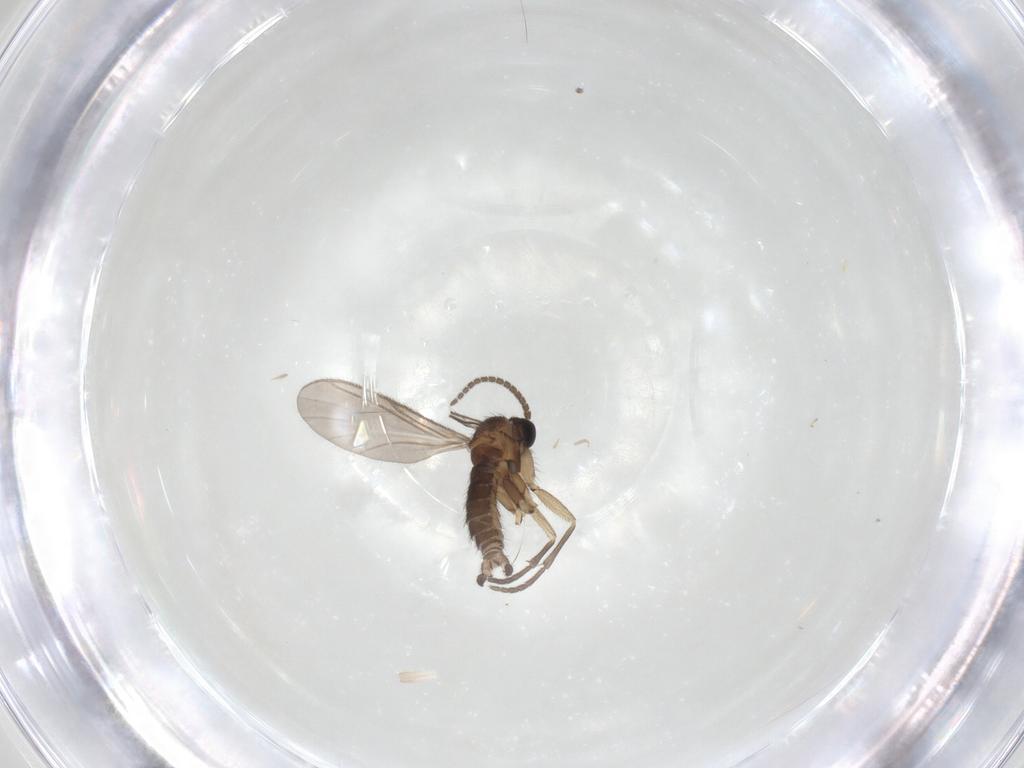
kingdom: Animalia
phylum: Arthropoda
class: Insecta
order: Diptera
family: Sciaridae
